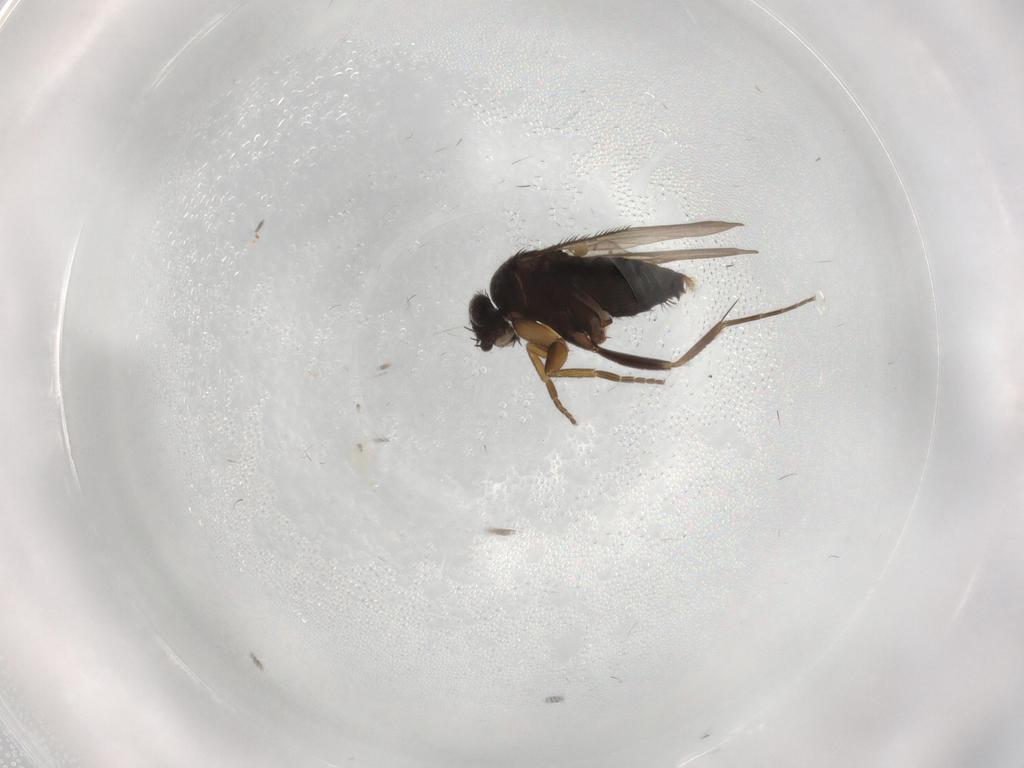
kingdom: Animalia
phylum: Arthropoda
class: Insecta
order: Diptera
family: Phoridae
